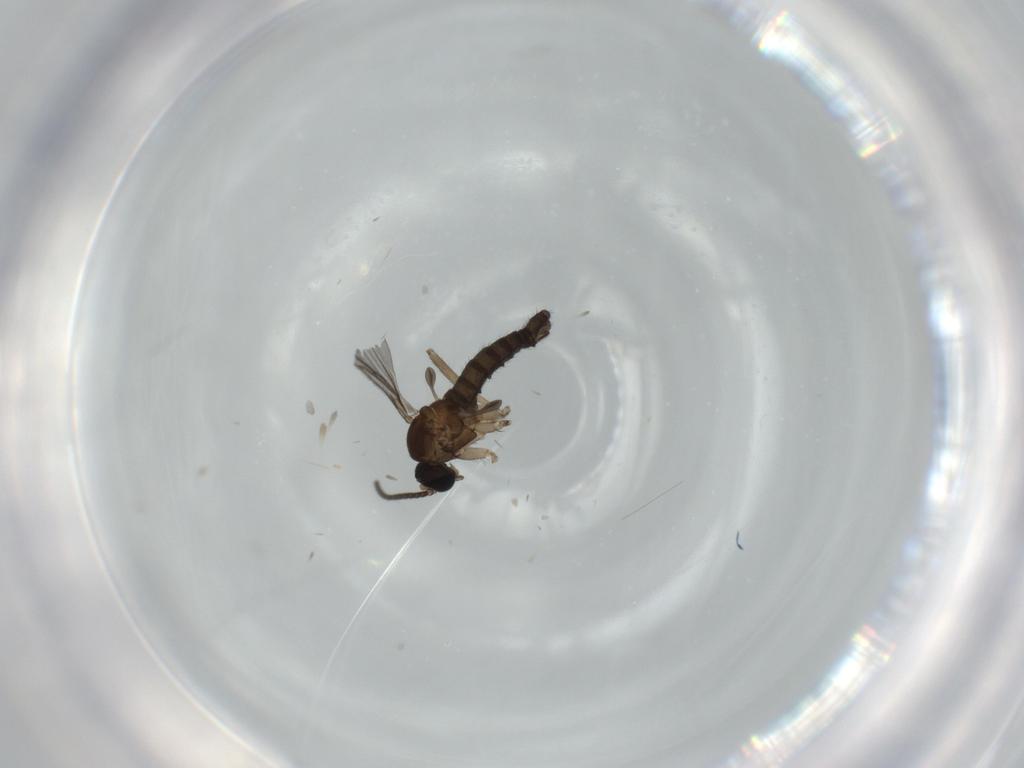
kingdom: Animalia
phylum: Arthropoda
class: Insecta
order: Diptera
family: Sciaridae
